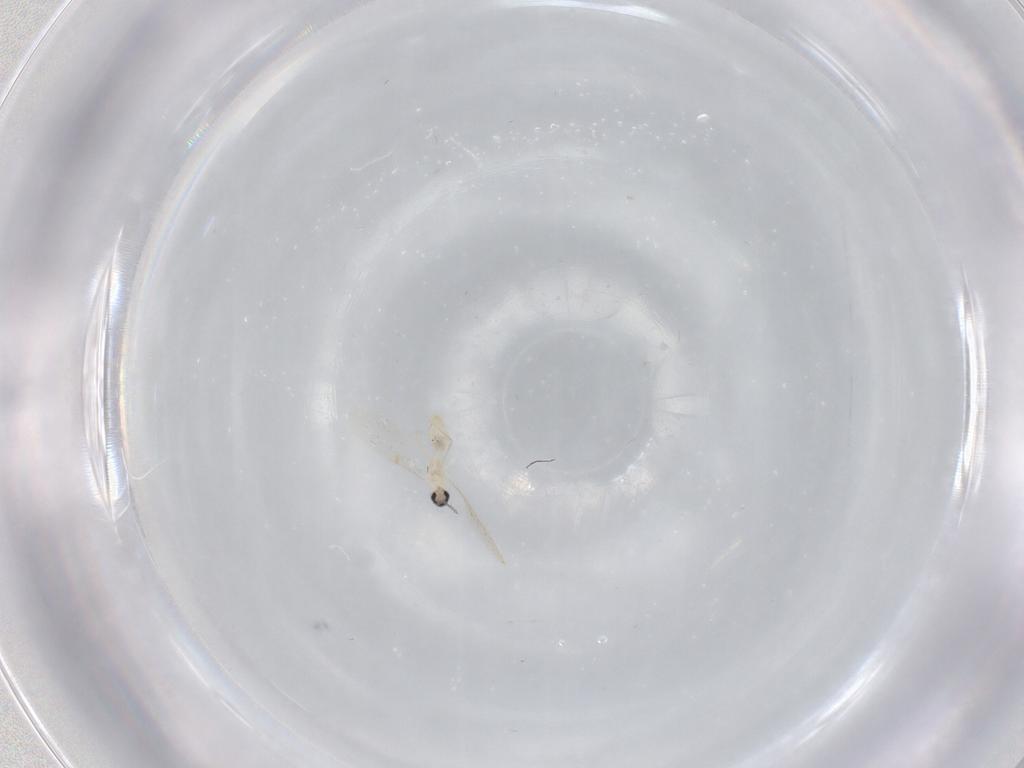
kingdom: Animalia
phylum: Arthropoda
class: Insecta
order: Diptera
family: Cecidomyiidae
